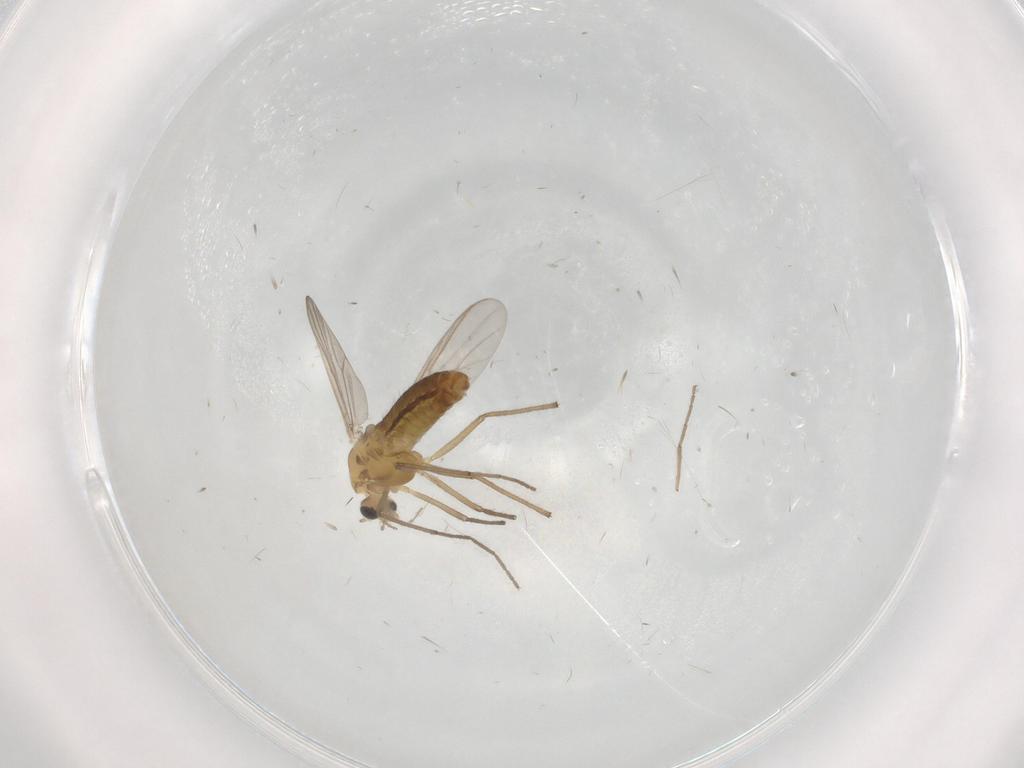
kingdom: Animalia
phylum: Arthropoda
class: Insecta
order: Diptera
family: Chironomidae
